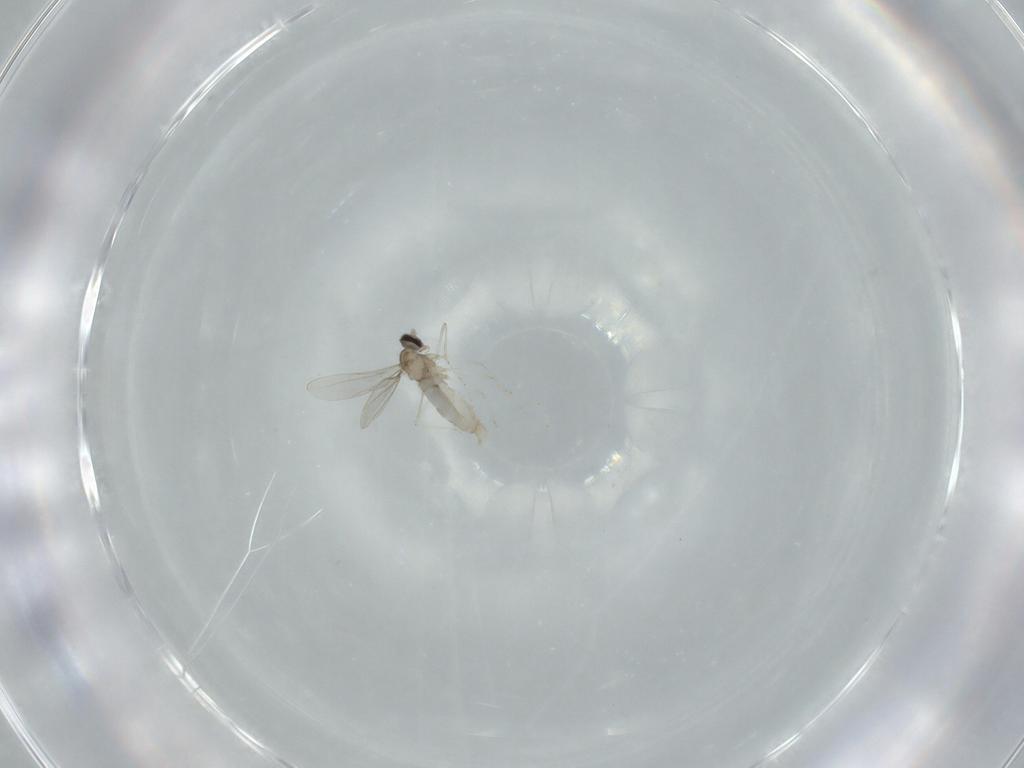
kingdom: Animalia
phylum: Arthropoda
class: Insecta
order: Diptera
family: Cecidomyiidae
